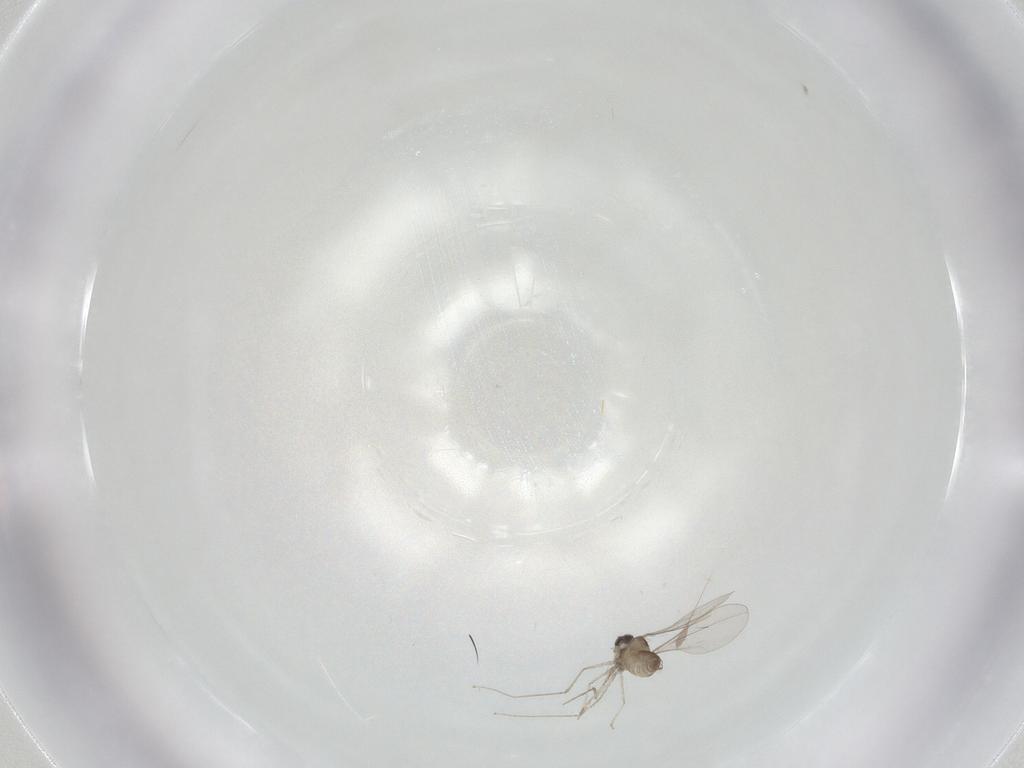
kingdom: Animalia
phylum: Arthropoda
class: Insecta
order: Diptera
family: Cecidomyiidae
